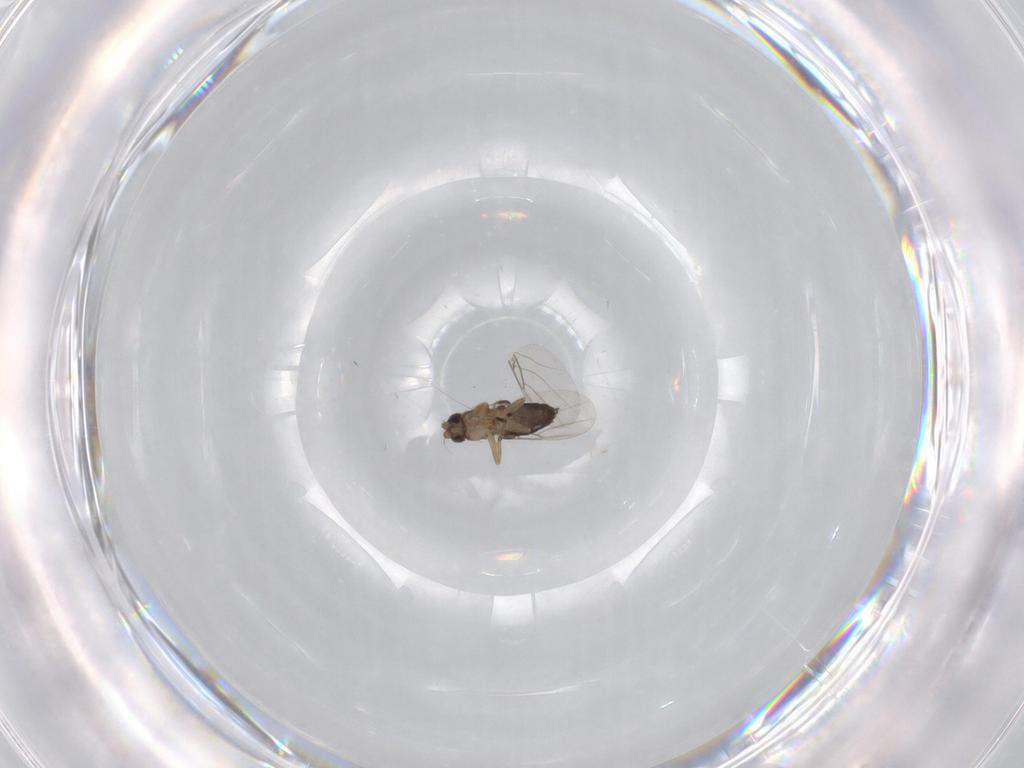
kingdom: Animalia
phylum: Arthropoda
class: Insecta
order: Diptera
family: Phoridae
